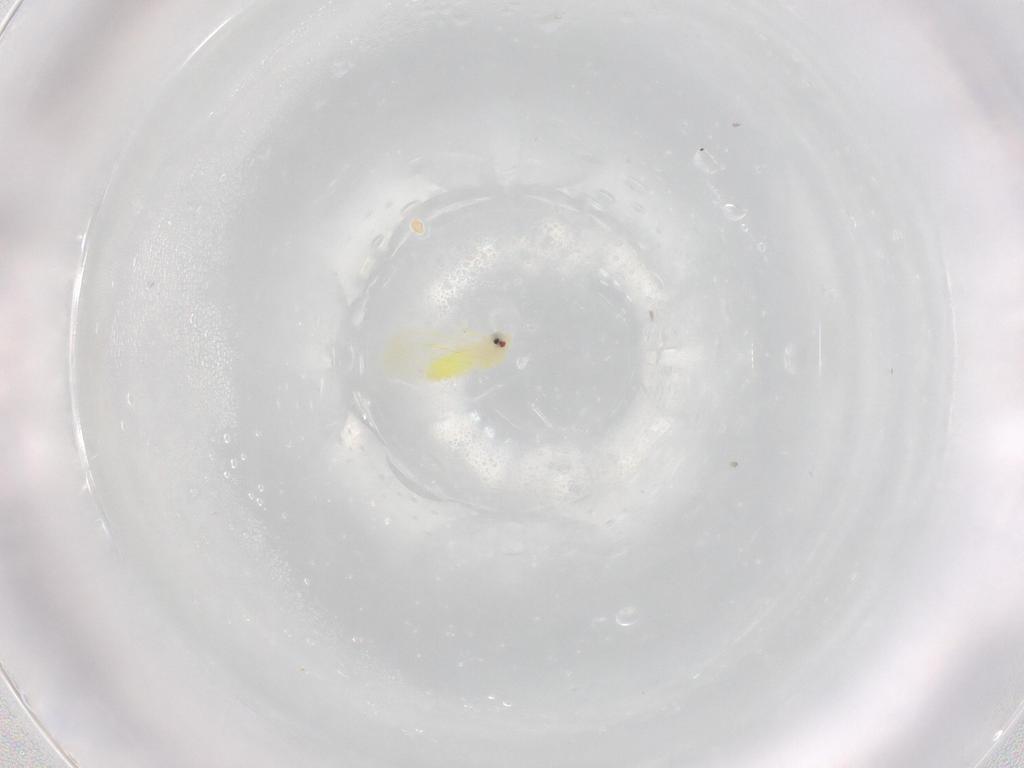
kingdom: Animalia
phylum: Arthropoda
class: Insecta
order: Hemiptera
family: Aleyrodidae
